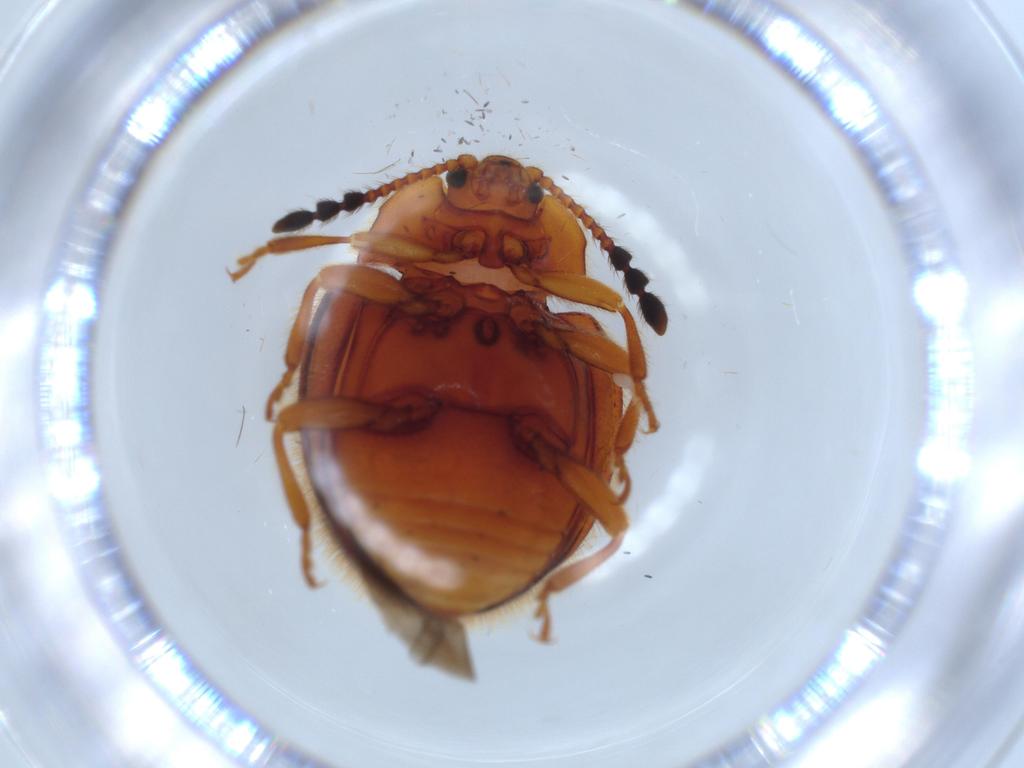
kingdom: Animalia
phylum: Arthropoda
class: Insecta
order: Coleoptera
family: Endomychidae
